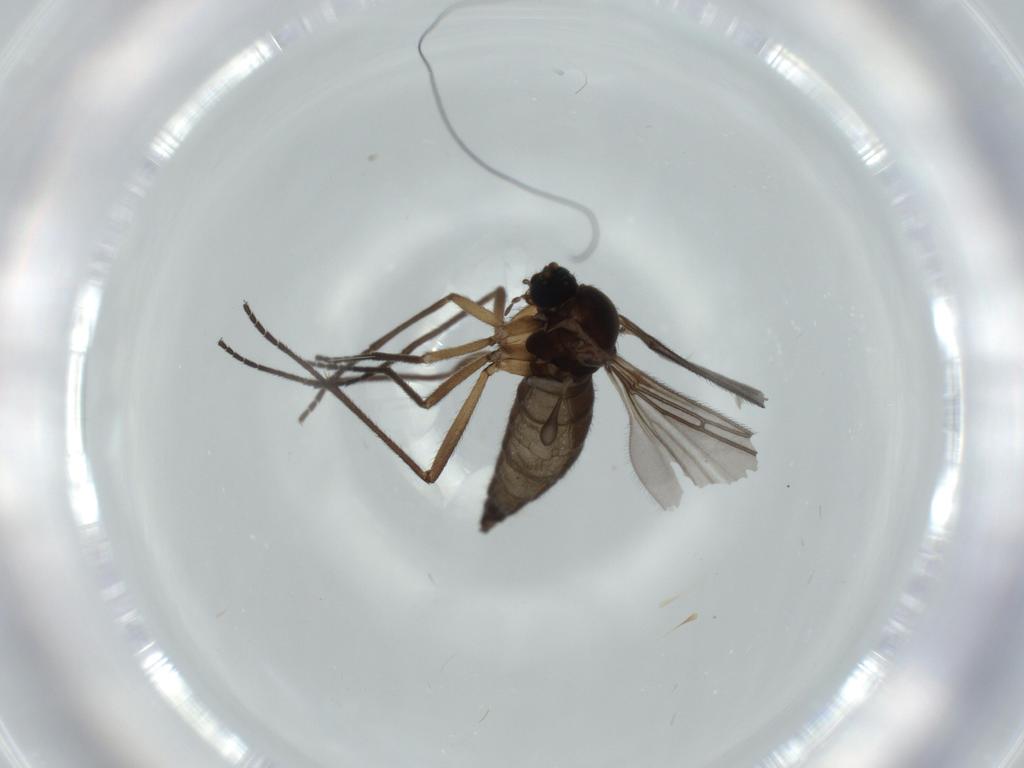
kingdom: Animalia
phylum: Arthropoda
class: Insecta
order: Diptera
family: Sciaridae
